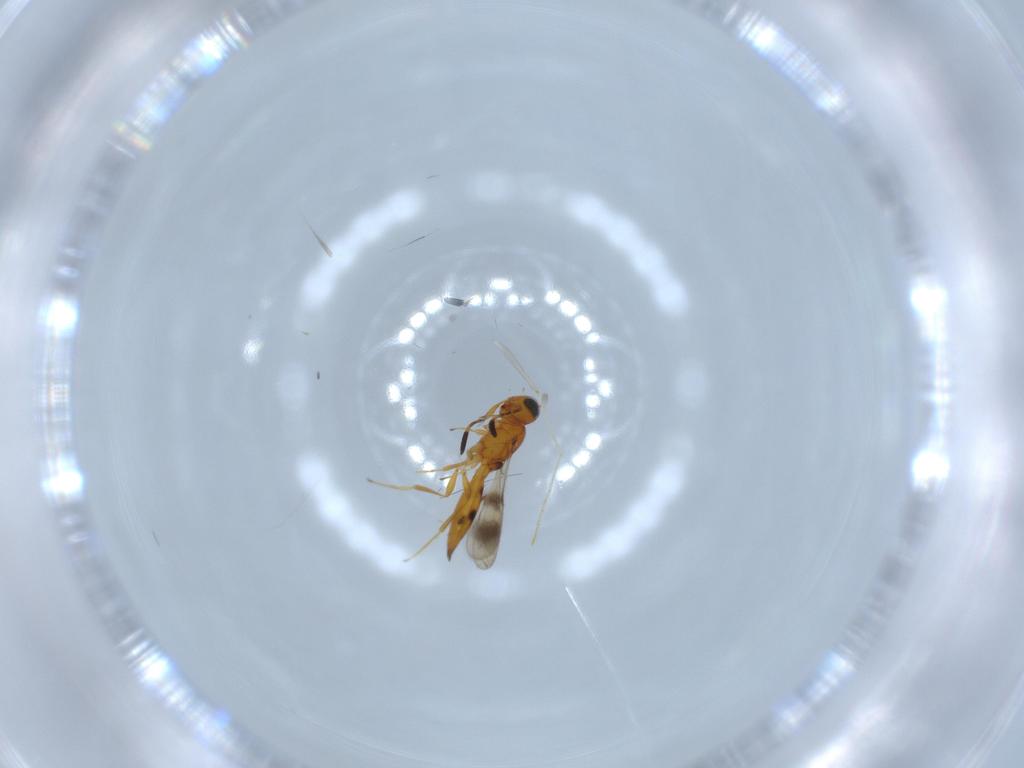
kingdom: Animalia
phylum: Arthropoda
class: Insecta
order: Hymenoptera
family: Scelionidae
